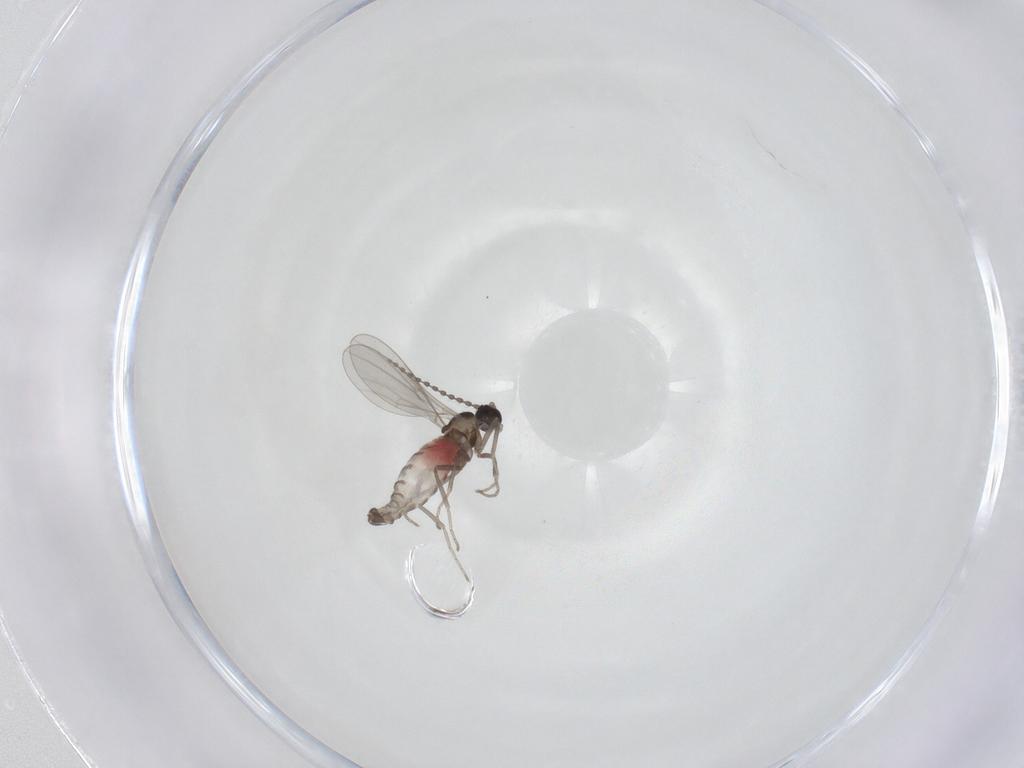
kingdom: Animalia
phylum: Arthropoda
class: Insecta
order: Diptera
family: Cecidomyiidae
